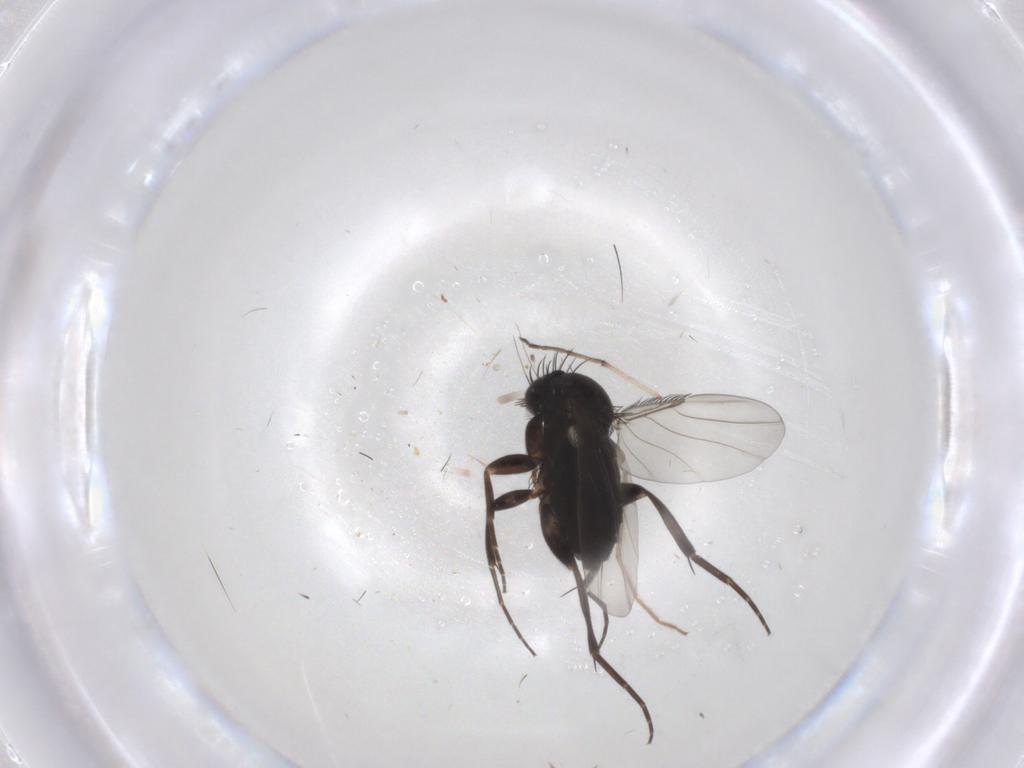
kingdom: Animalia
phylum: Arthropoda
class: Insecta
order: Diptera
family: Phoridae
